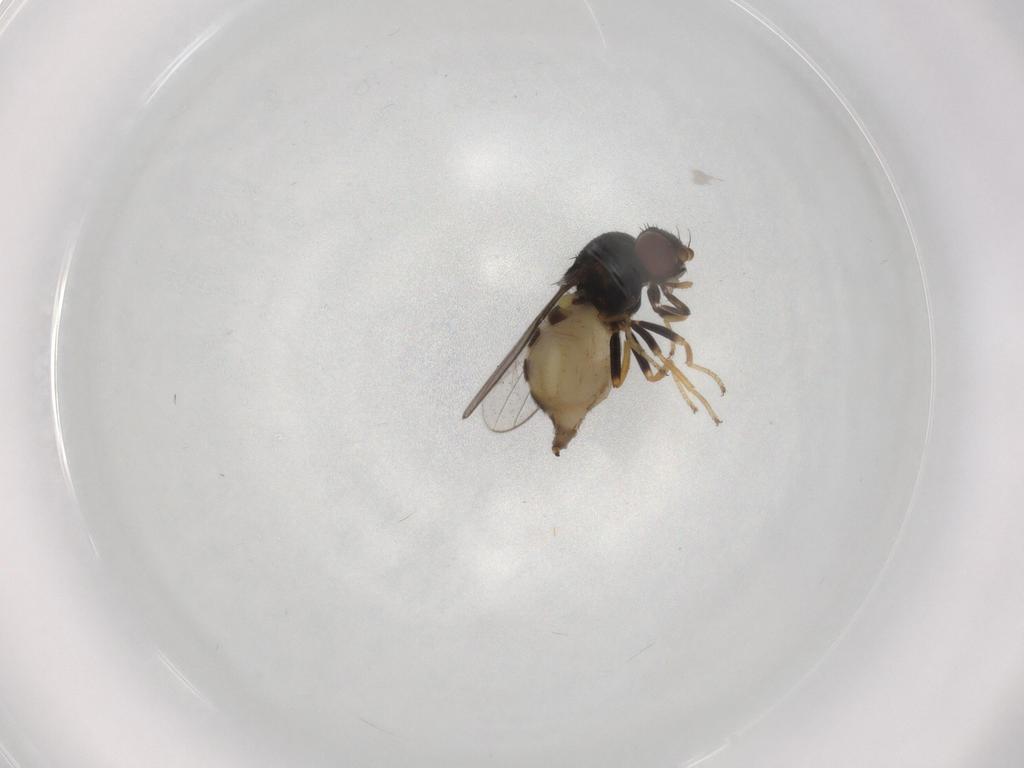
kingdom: Animalia
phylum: Arthropoda
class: Insecta
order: Diptera
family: Chloropidae
